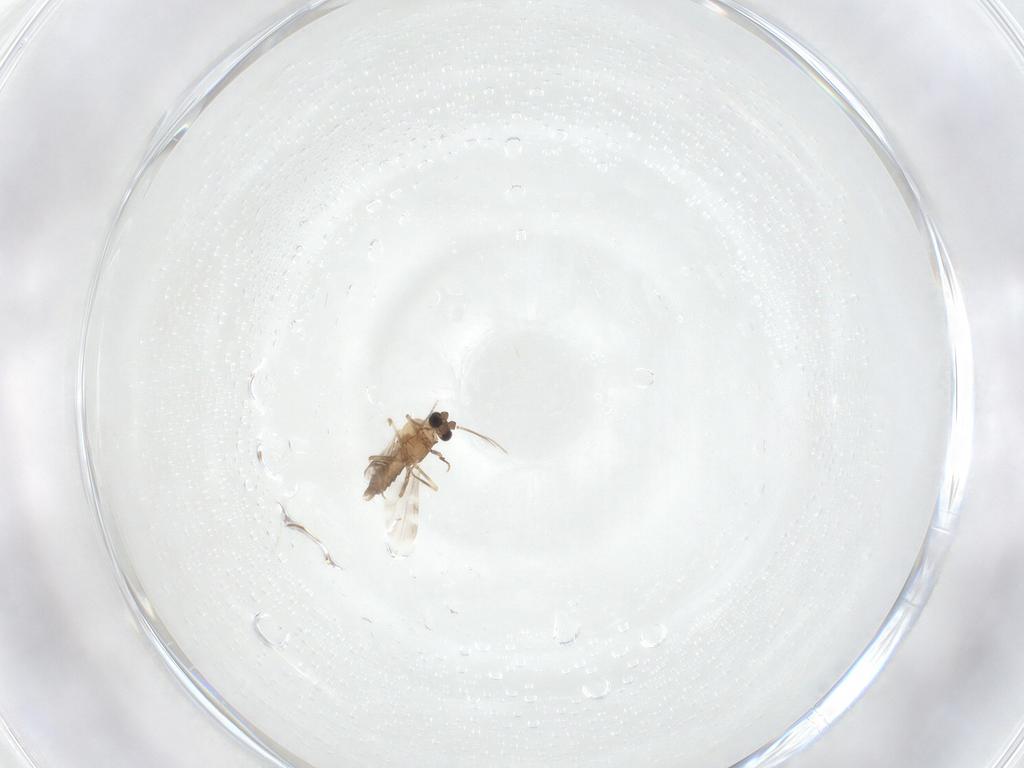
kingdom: Animalia
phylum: Arthropoda
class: Insecta
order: Diptera
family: Ceratopogonidae
